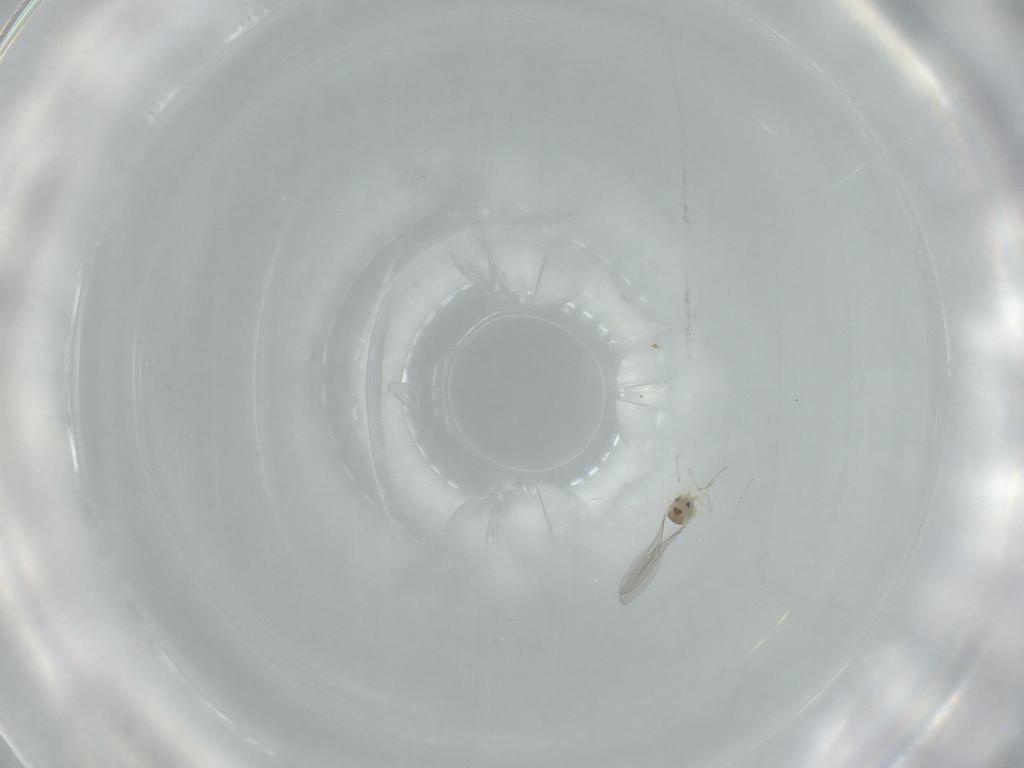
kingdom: Animalia
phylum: Arthropoda
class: Insecta
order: Diptera
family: Cecidomyiidae
